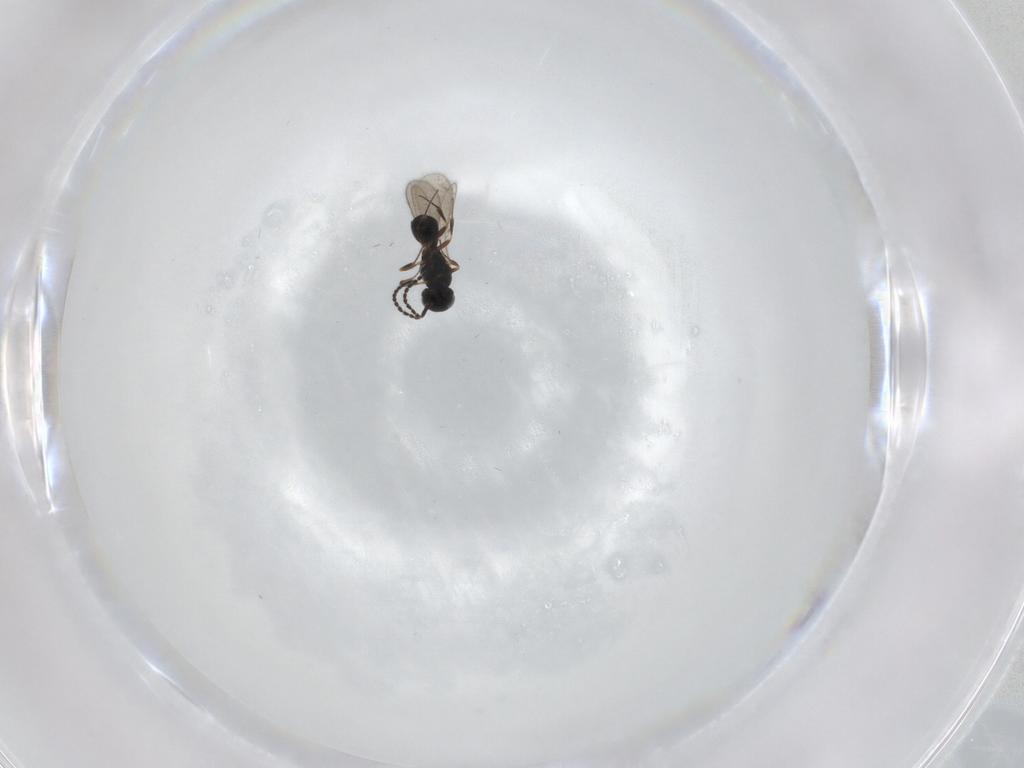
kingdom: Animalia
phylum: Arthropoda
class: Insecta
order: Hymenoptera
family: Scelionidae
